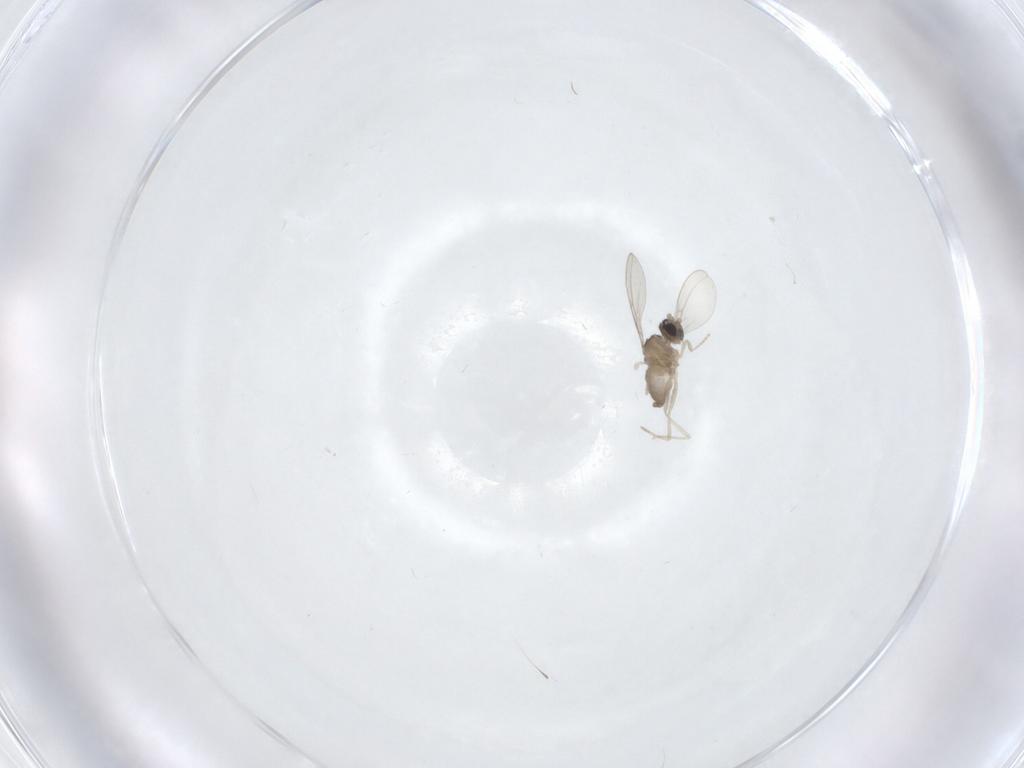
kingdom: Animalia
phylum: Arthropoda
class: Insecta
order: Diptera
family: Cecidomyiidae
